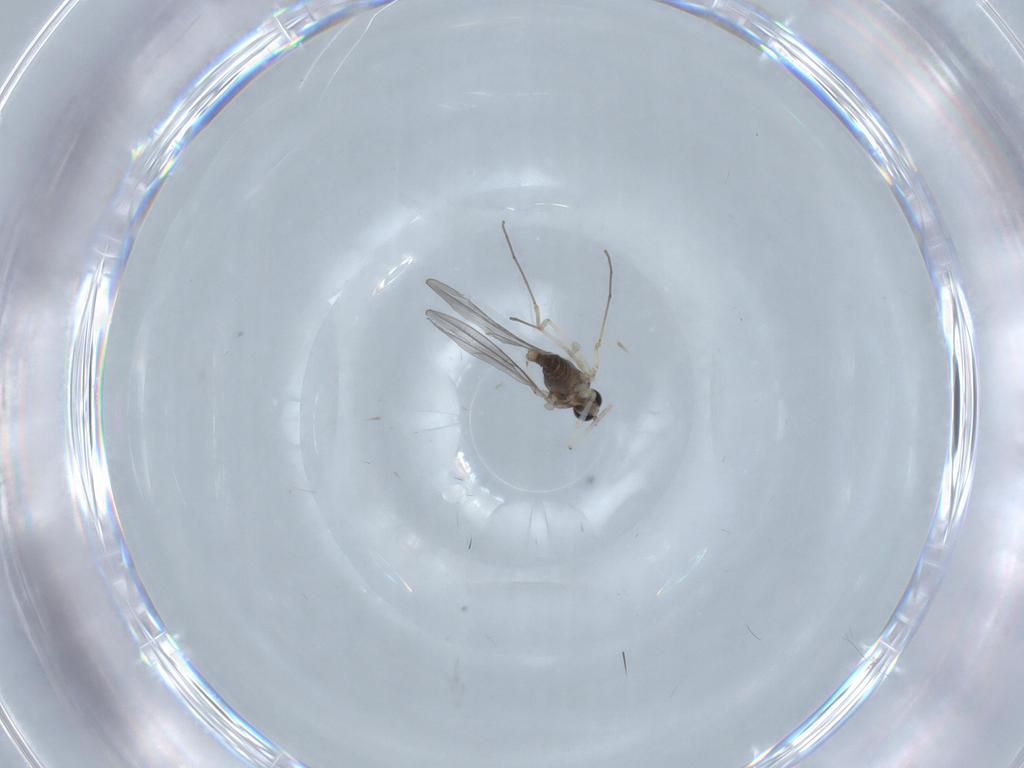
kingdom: Animalia
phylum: Arthropoda
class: Insecta
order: Diptera
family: Psychodidae
